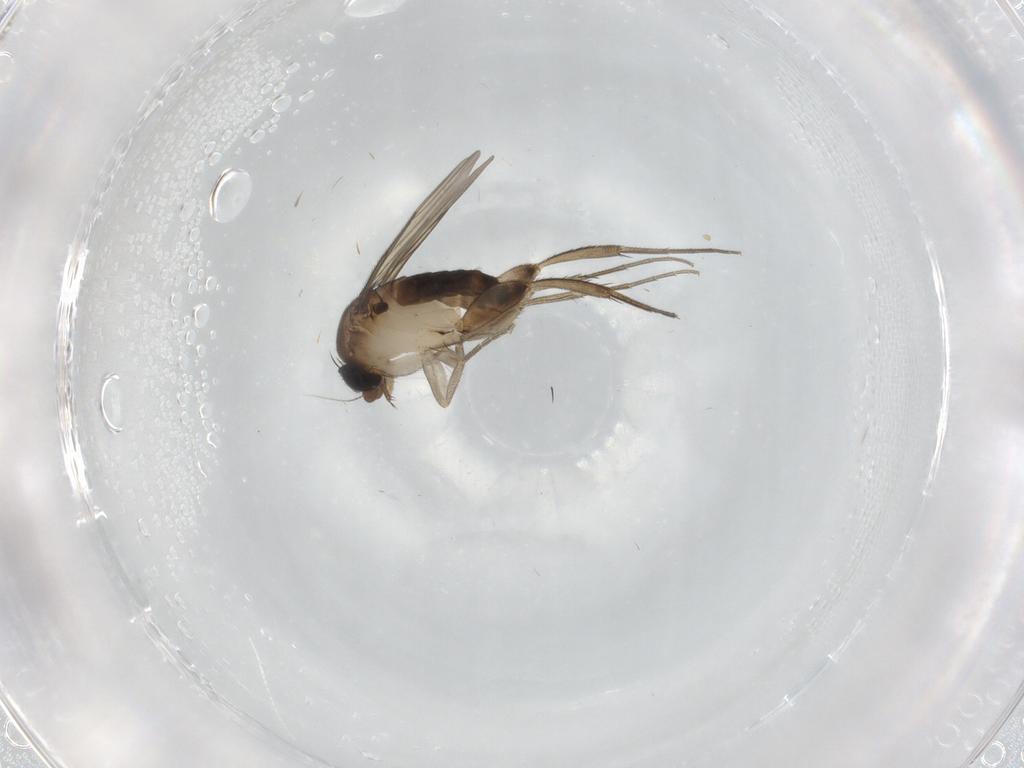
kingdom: Animalia
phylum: Arthropoda
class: Insecta
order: Diptera
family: Phoridae
